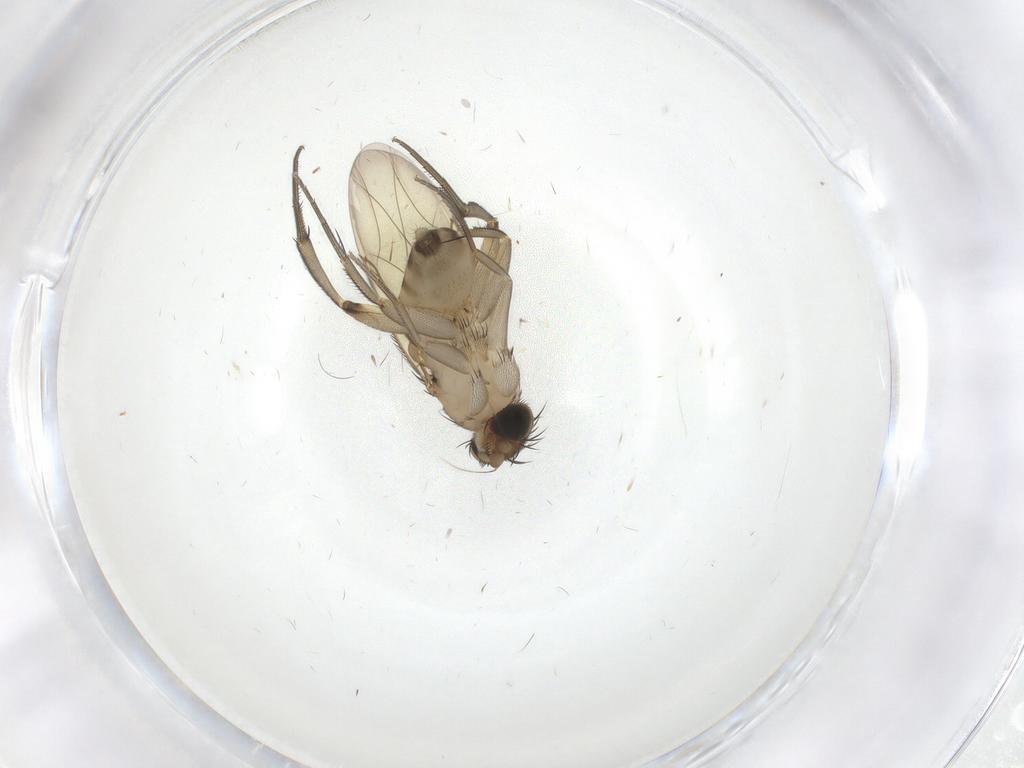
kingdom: Animalia
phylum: Arthropoda
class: Insecta
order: Diptera
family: Phoridae
